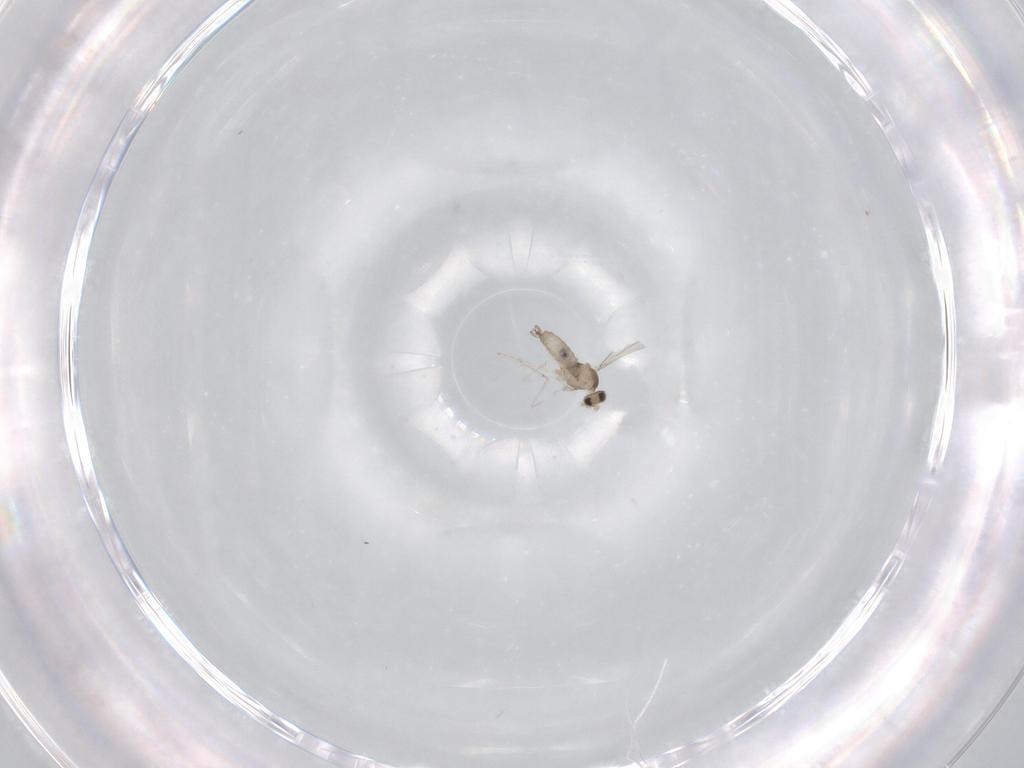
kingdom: Animalia
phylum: Arthropoda
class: Insecta
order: Diptera
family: Cecidomyiidae
